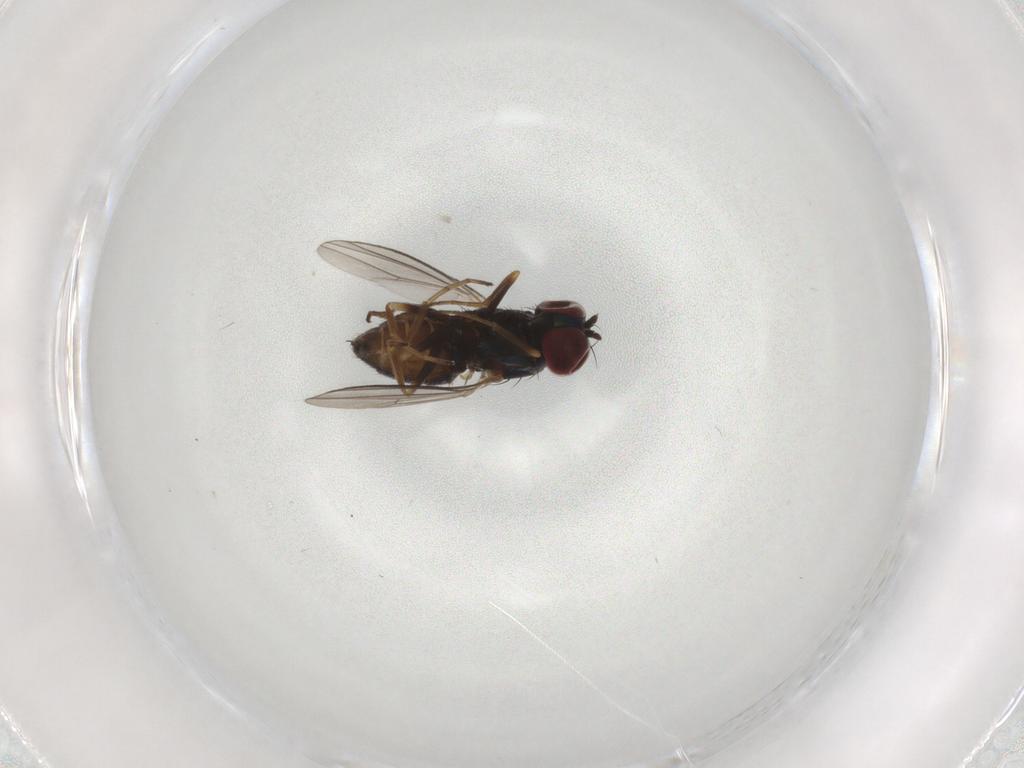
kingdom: Animalia
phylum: Arthropoda
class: Insecta
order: Diptera
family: Dolichopodidae
